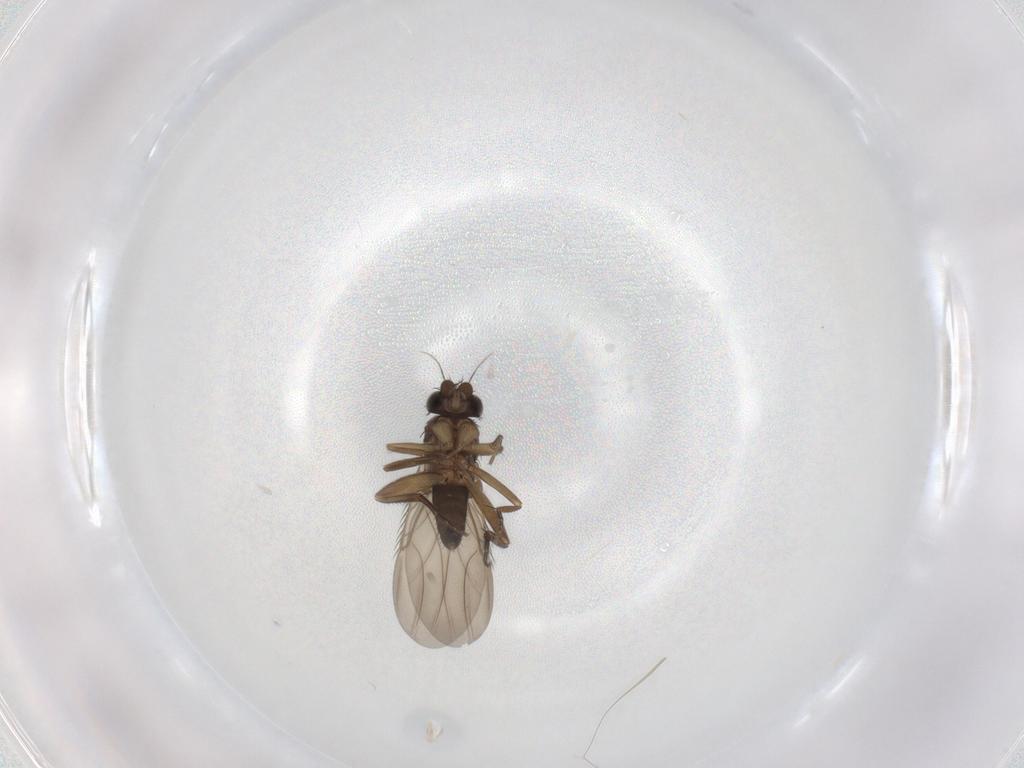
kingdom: Animalia
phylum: Arthropoda
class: Insecta
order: Diptera
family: Phoridae
